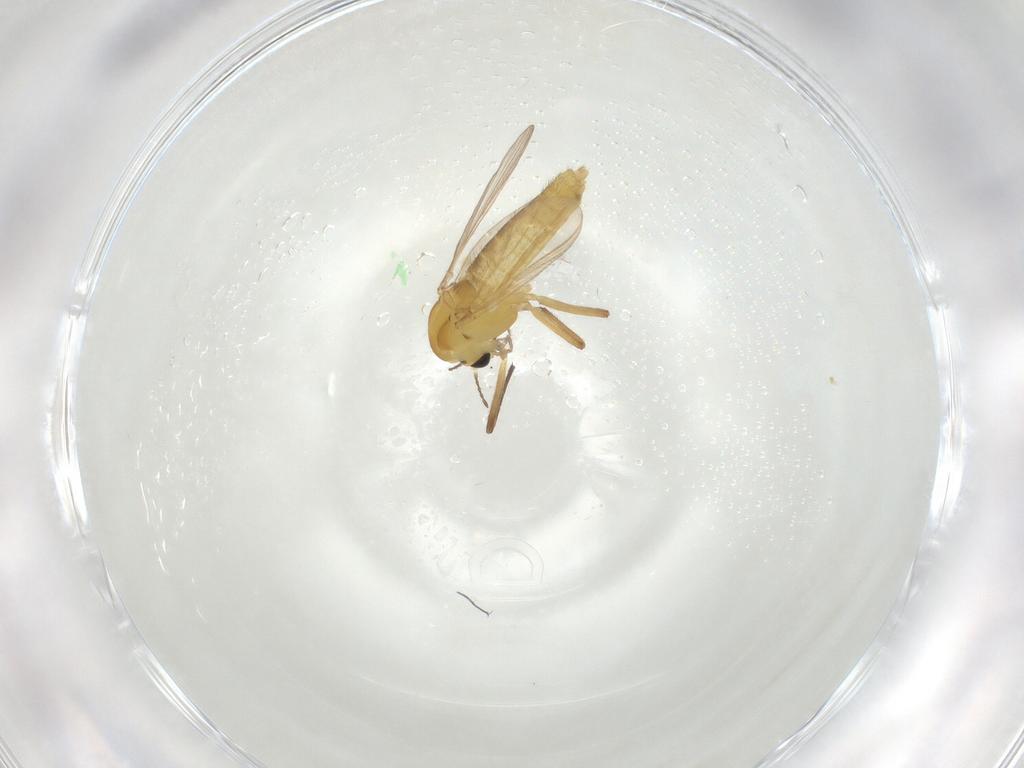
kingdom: Animalia
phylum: Arthropoda
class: Insecta
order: Diptera
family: Chironomidae
